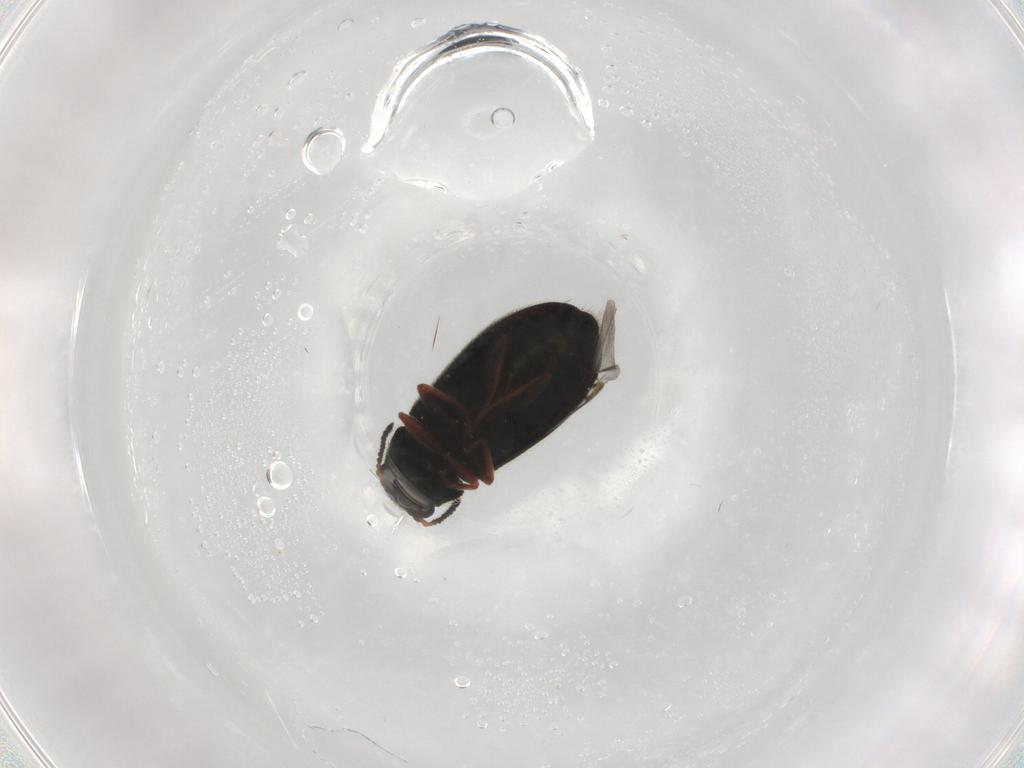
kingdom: Animalia
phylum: Arthropoda
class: Insecta
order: Coleoptera
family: Melyridae
